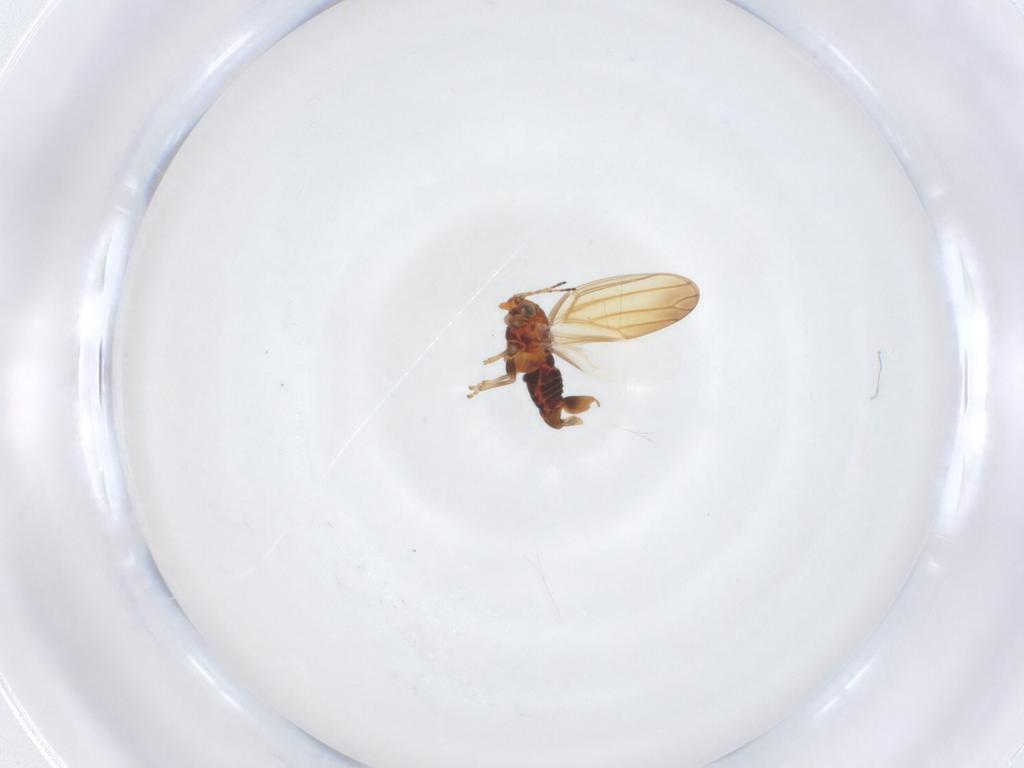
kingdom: Animalia
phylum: Arthropoda
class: Insecta
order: Hemiptera
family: Aphalaridae
